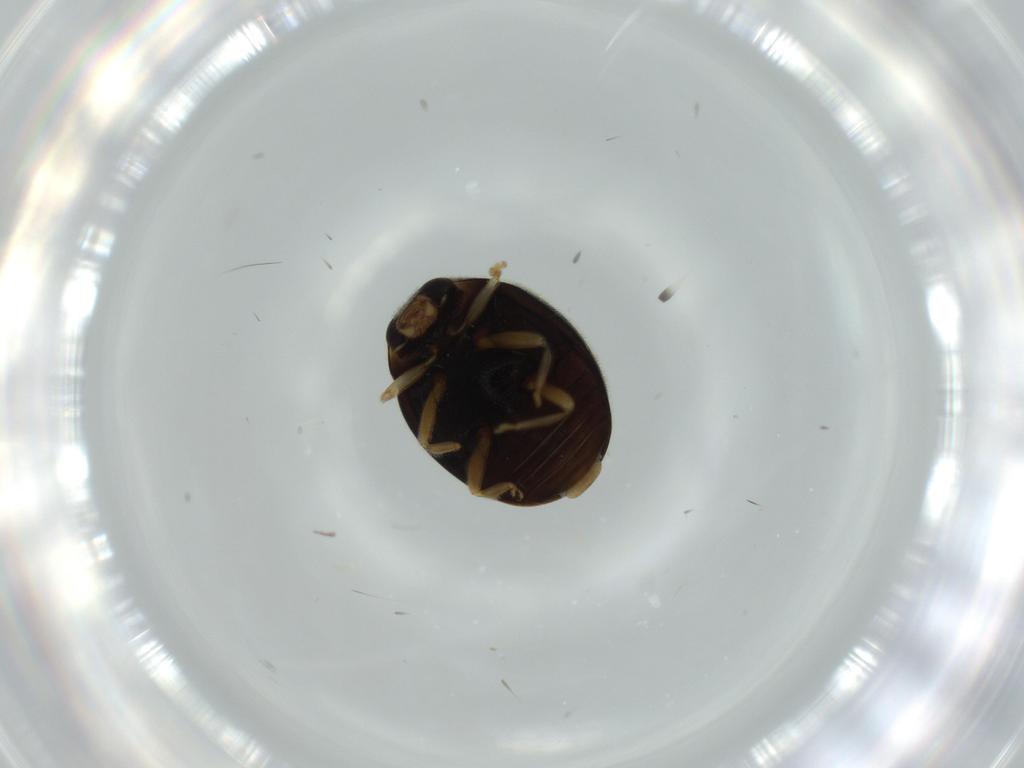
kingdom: Animalia
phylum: Arthropoda
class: Insecta
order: Coleoptera
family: Coccinellidae
